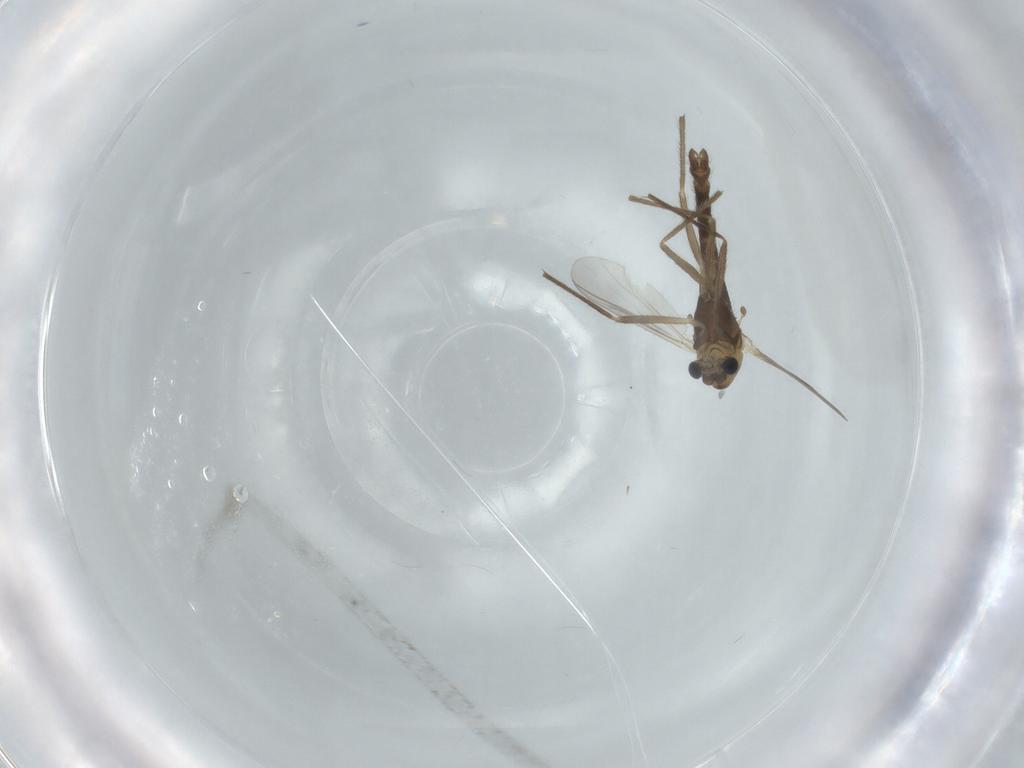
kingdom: Animalia
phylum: Arthropoda
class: Insecta
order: Diptera
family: Chironomidae
